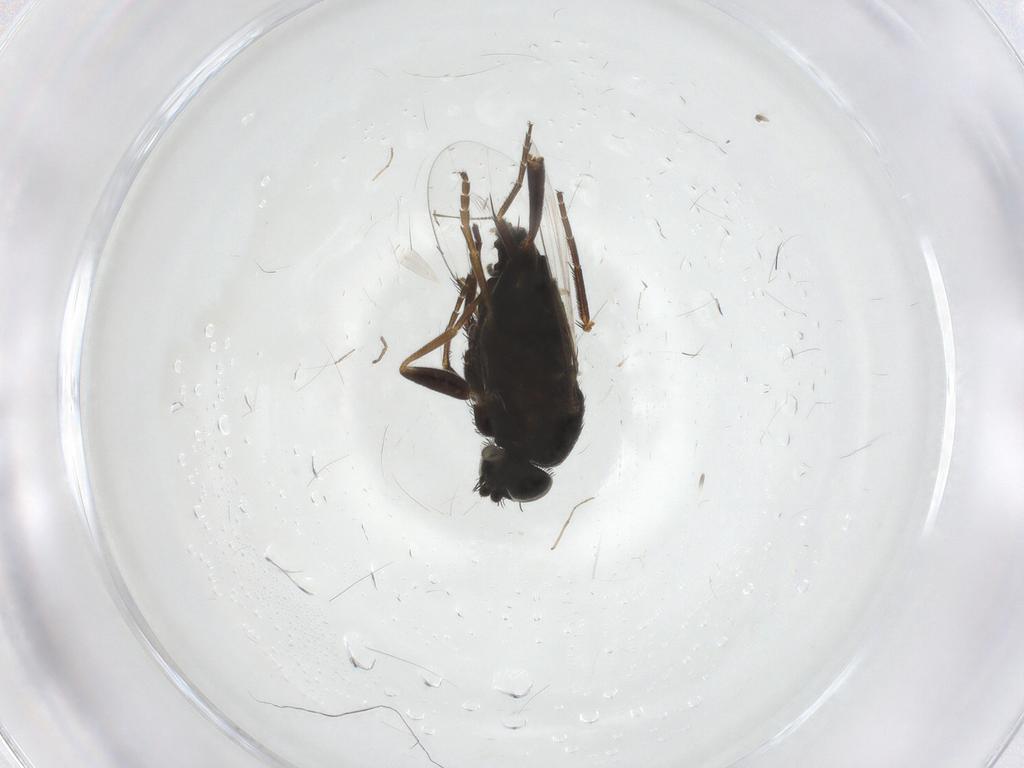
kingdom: Animalia
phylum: Arthropoda
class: Insecta
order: Diptera
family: Phoridae
